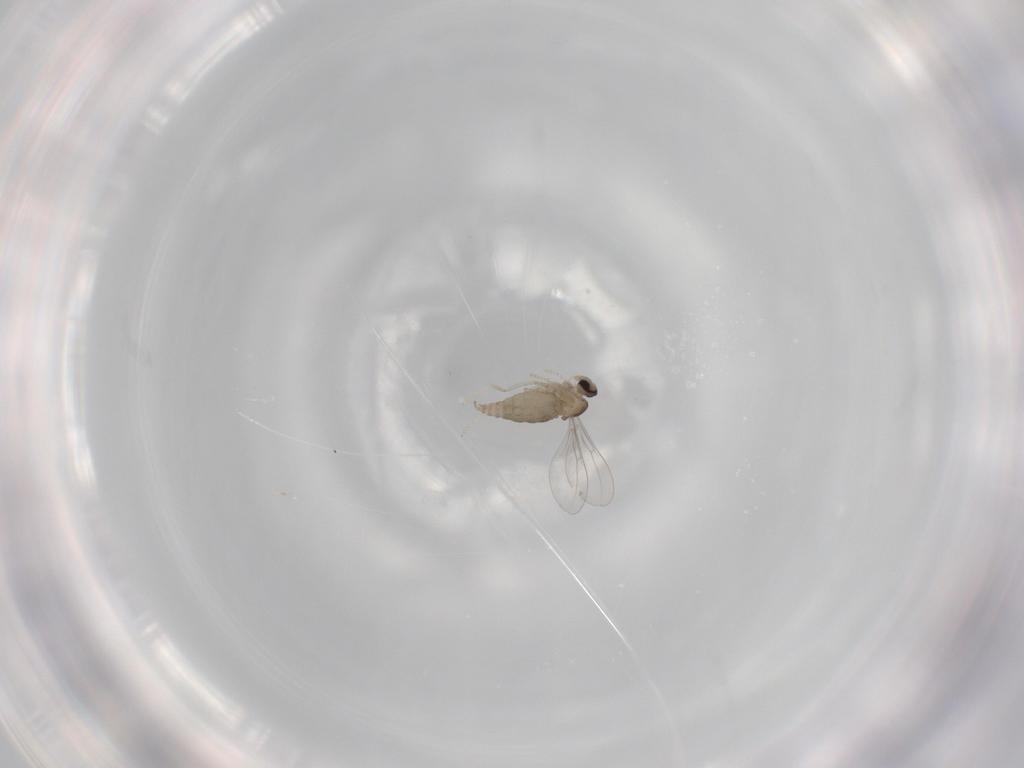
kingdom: Animalia
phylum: Arthropoda
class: Insecta
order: Diptera
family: Cecidomyiidae
